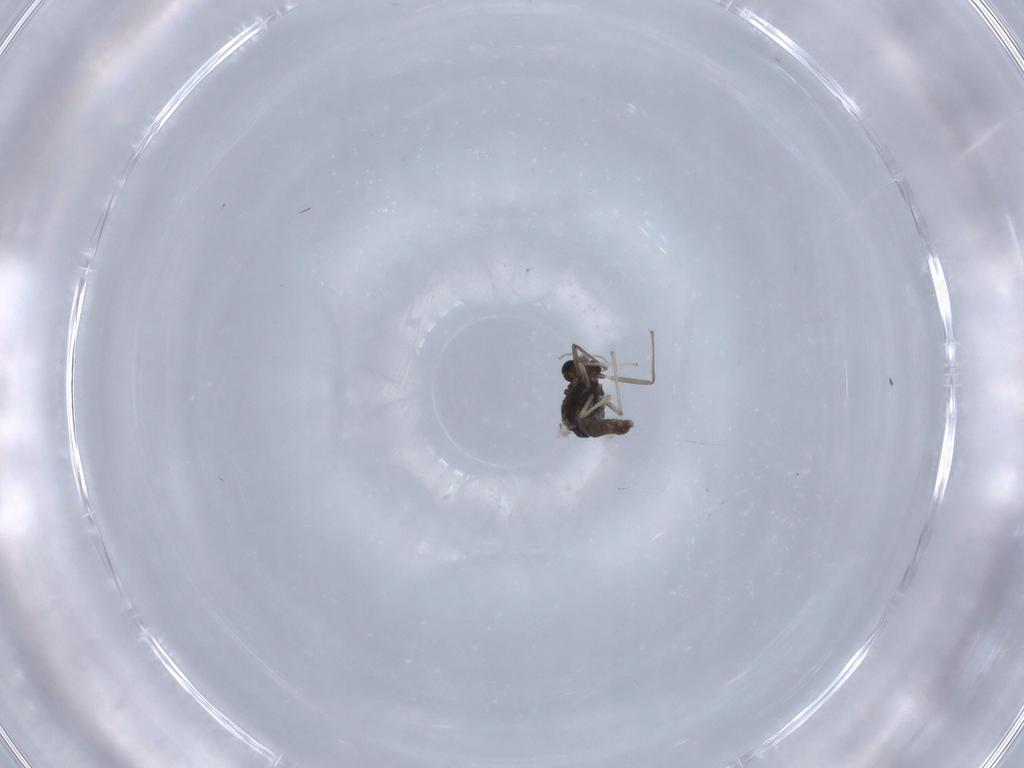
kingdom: Animalia
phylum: Arthropoda
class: Insecta
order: Diptera
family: Chironomidae
